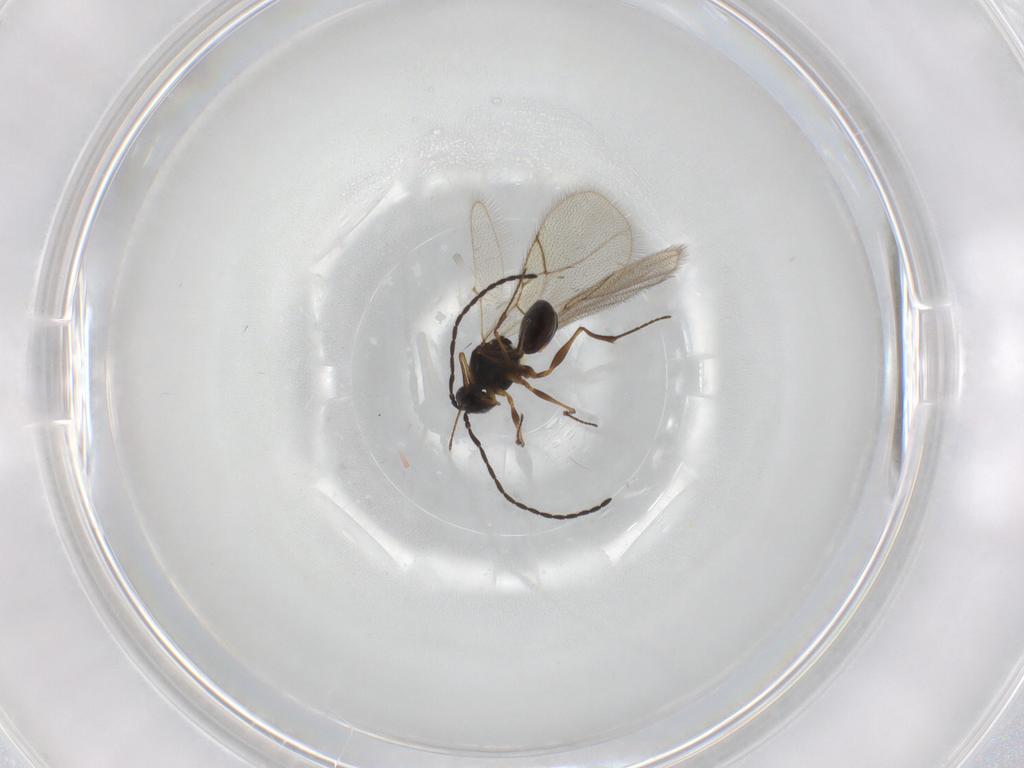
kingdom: Animalia
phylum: Arthropoda
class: Insecta
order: Hymenoptera
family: Figitidae
